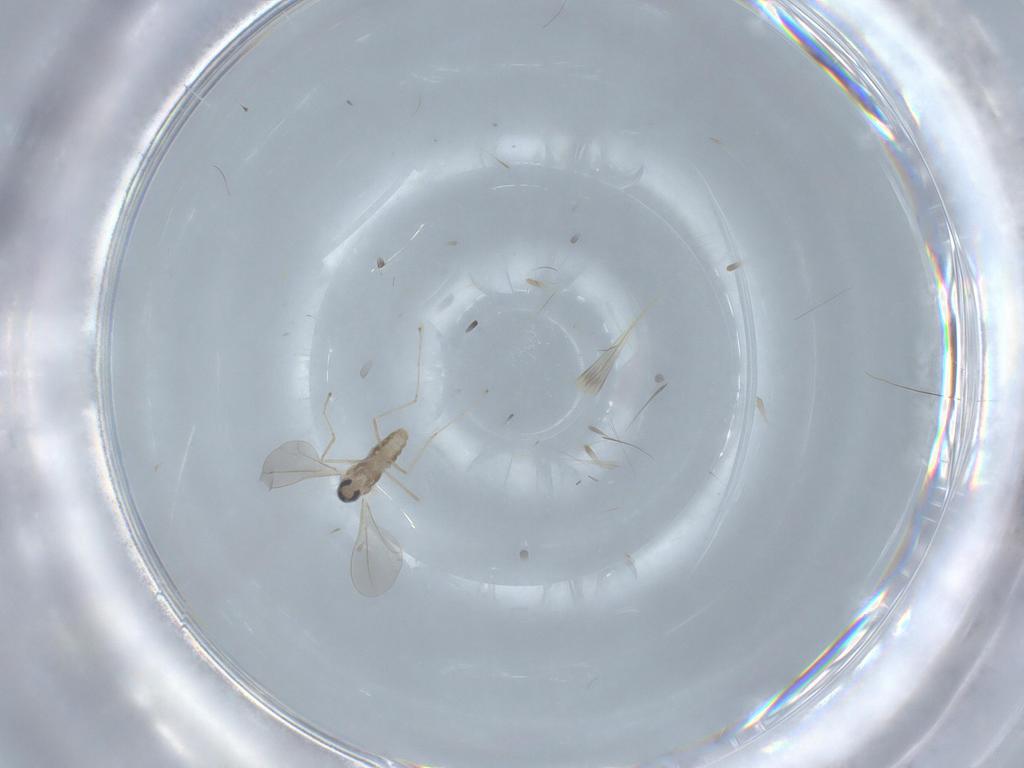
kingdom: Animalia
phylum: Arthropoda
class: Insecta
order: Diptera
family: Cecidomyiidae
